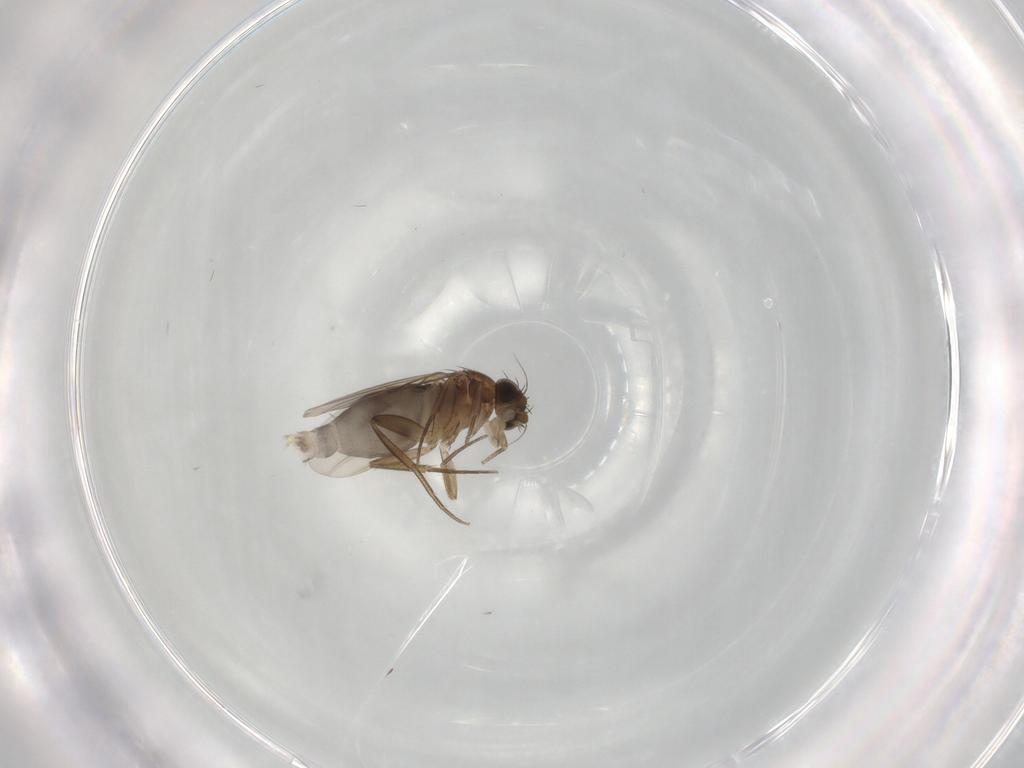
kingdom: Animalia
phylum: Arthropoda
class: Insecta
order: Diptera
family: Phoridae
